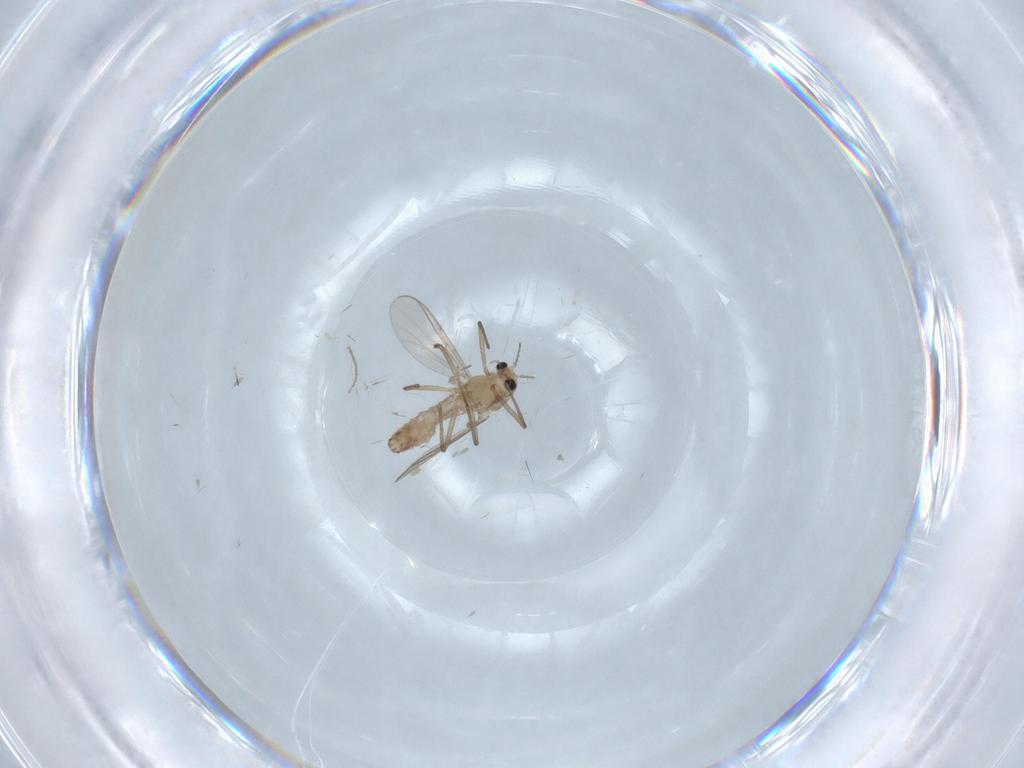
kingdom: Animalia
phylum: Arthropoda
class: Insecta
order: Diptera
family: Chironomidae
